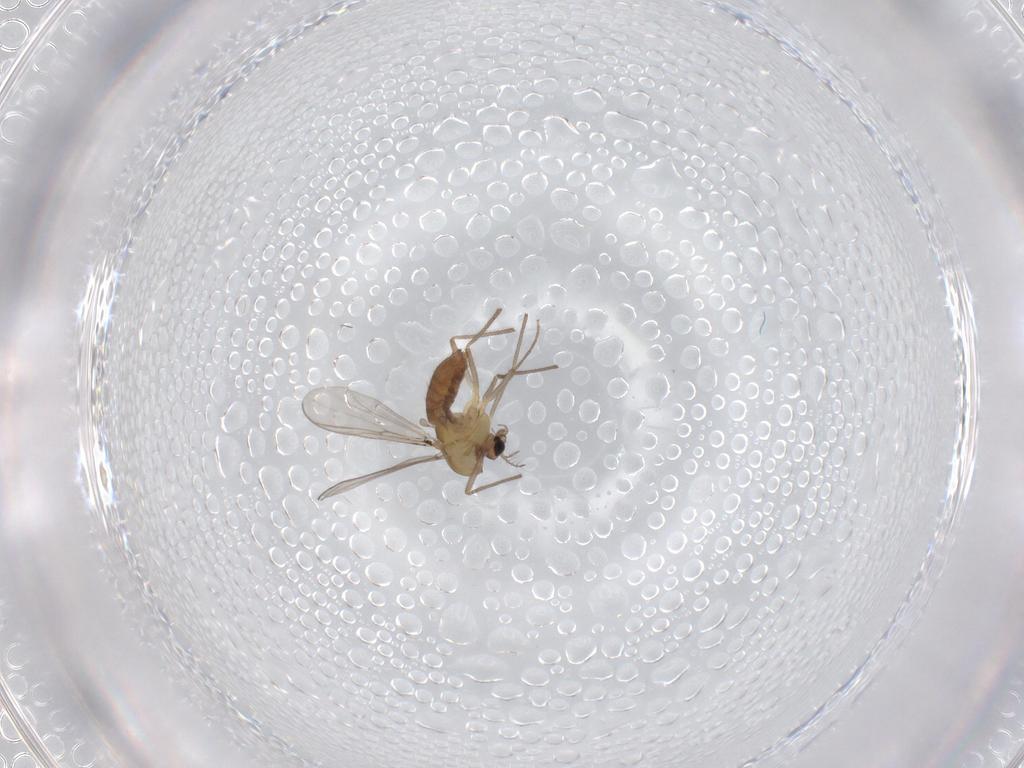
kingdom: Animalia
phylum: Arthropoda
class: Insecta
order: Diptera
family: Chironomidae
